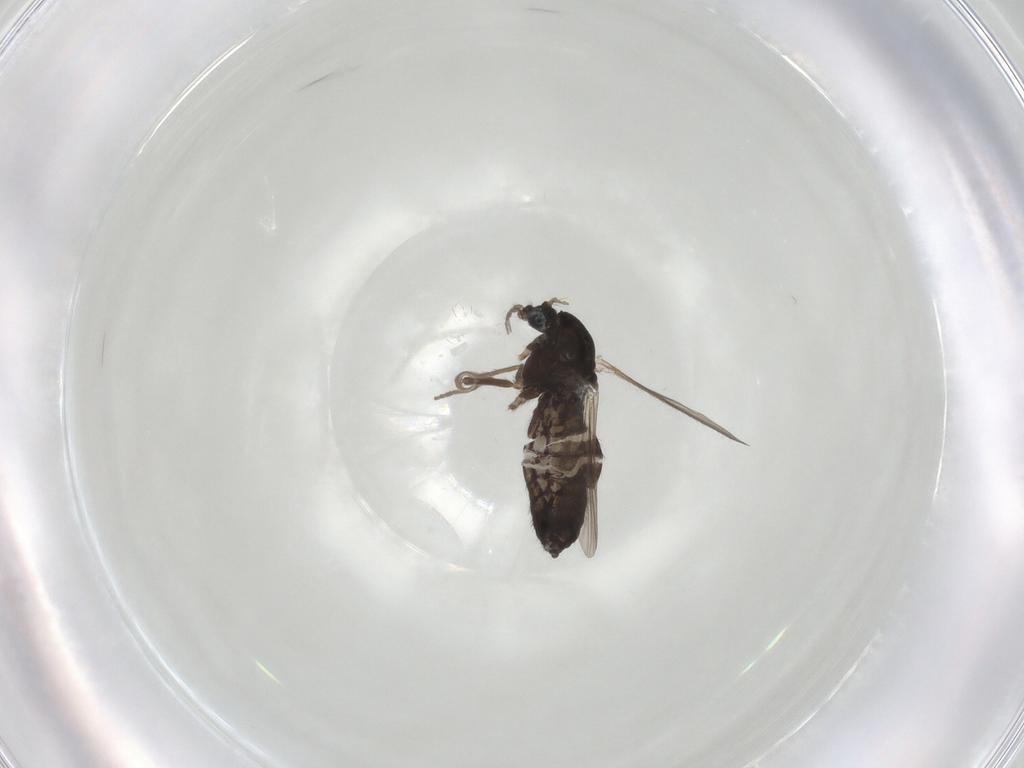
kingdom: Animalia
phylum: Arthropoda
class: Insecta
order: Diptera
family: Chironomidae
